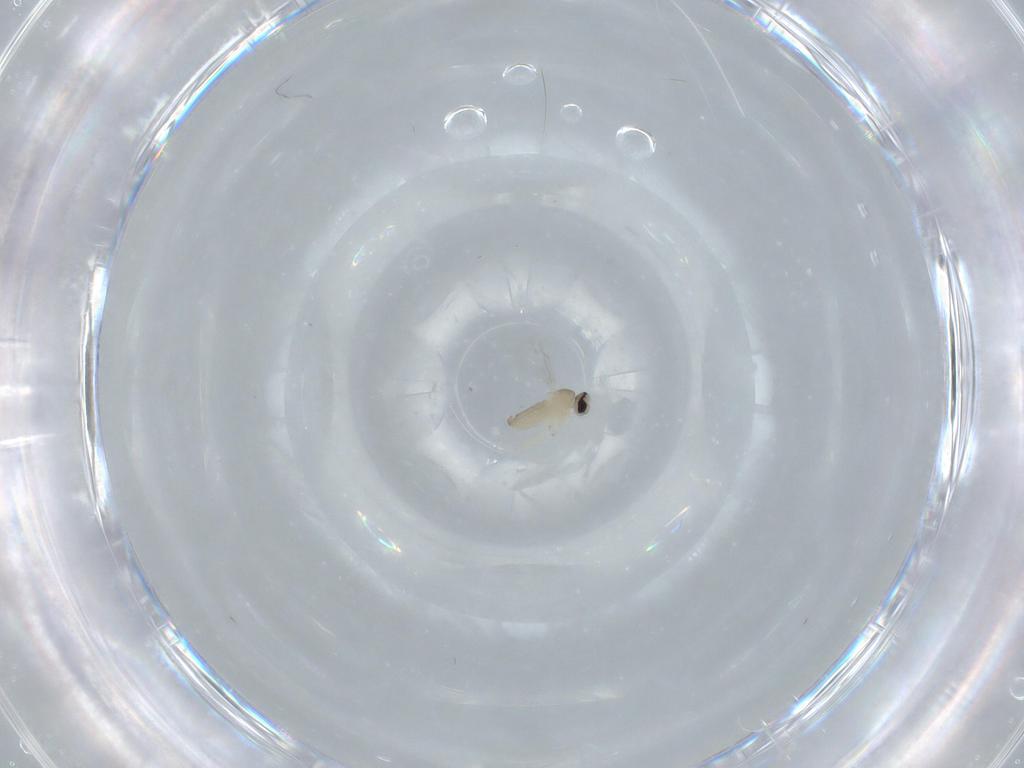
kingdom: Animalia
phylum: Arthropoda
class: Insecta
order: Diptera
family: Cecidomyiidae
